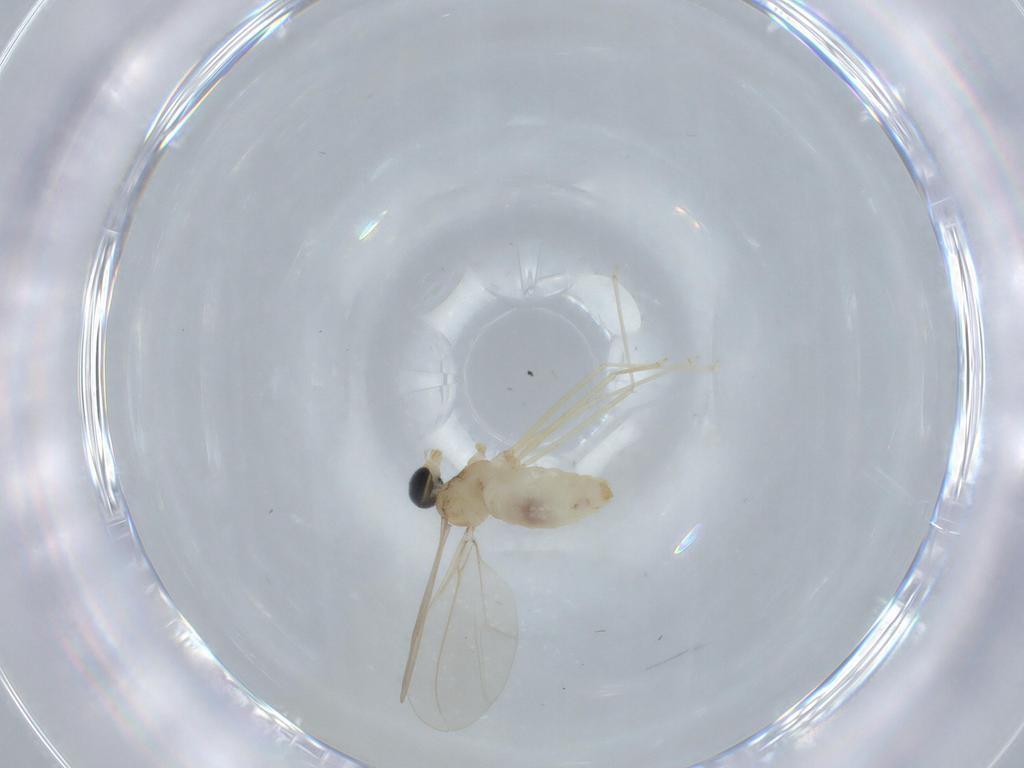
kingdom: Animalia
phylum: Arthropoda
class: Insecta
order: Diptera
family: Cecidomyiidae
